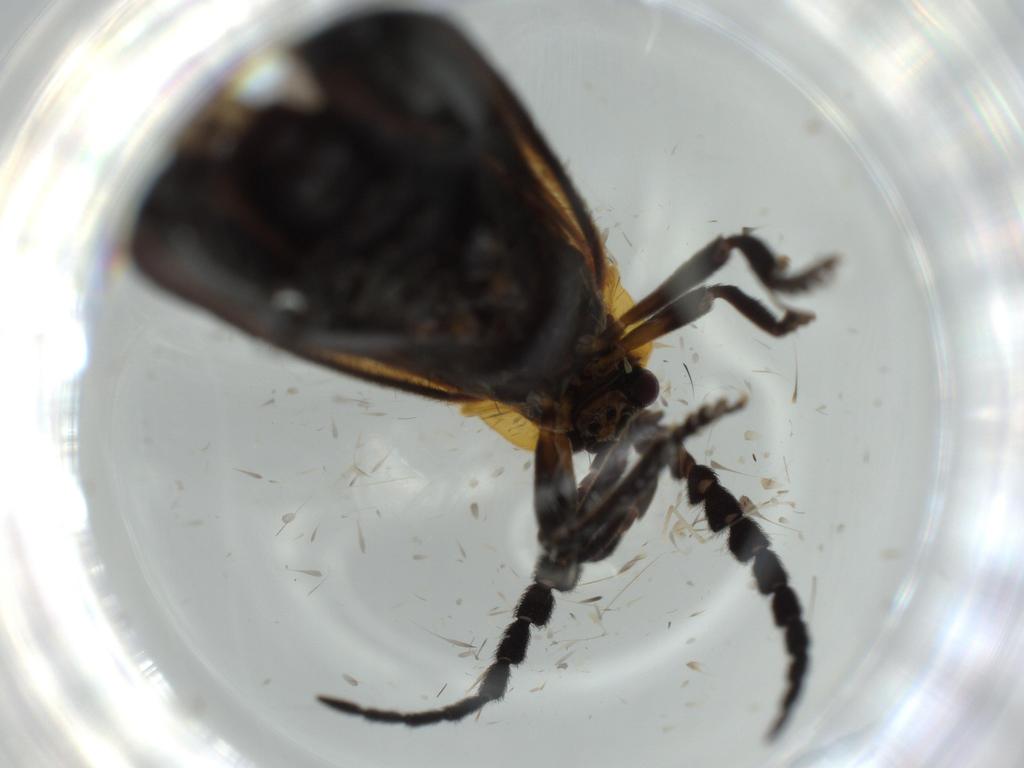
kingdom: Animalia
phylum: Arthropoda
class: Insecta
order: Coleoptera
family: Lycidae
